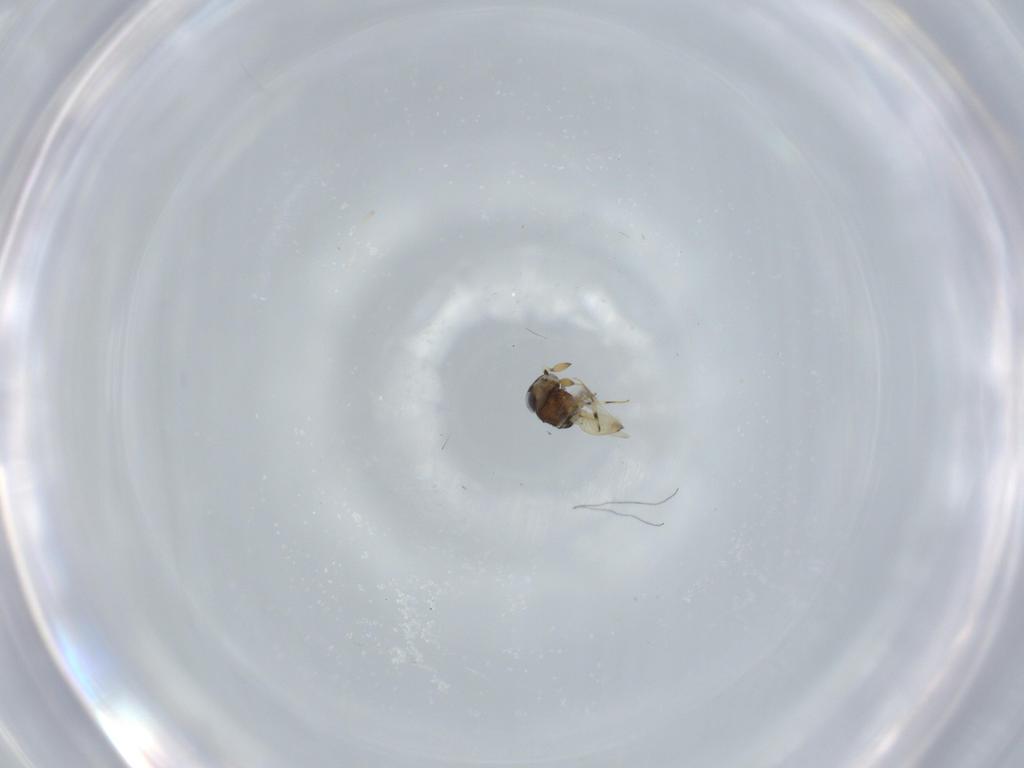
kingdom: Animalia
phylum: Arthropoda
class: Insecta
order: Hymenoptera
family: Scelionidae
